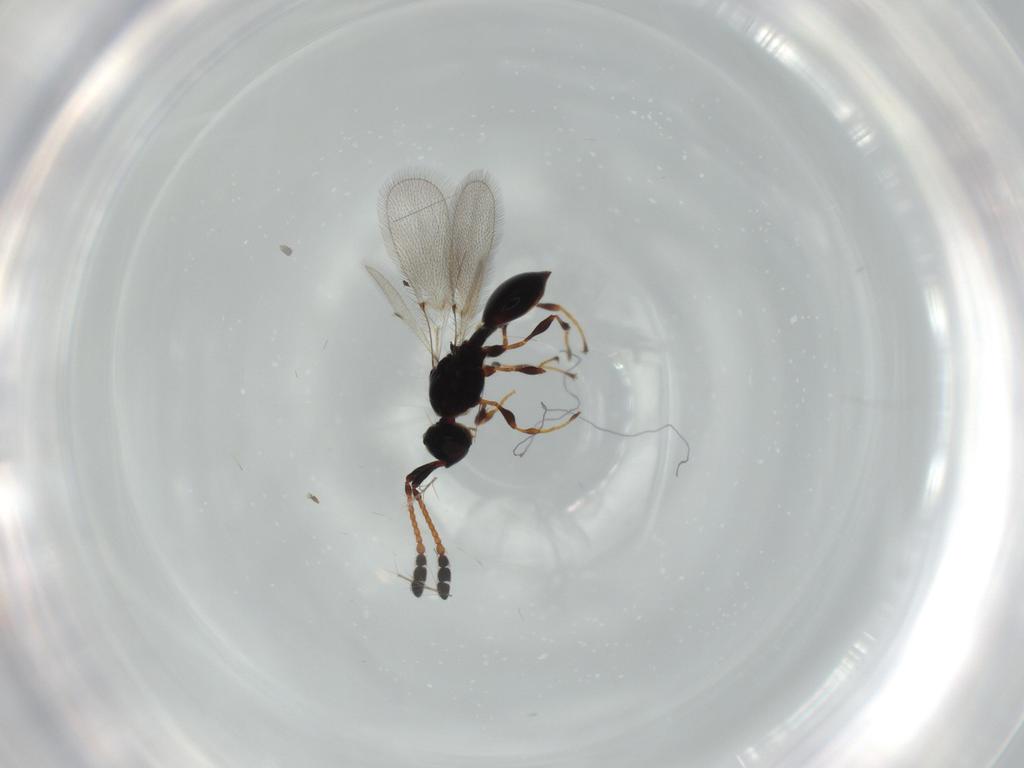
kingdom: Animalia
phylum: Arthropoda
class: Insecta
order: Hymenoptera
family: Diapriidae
